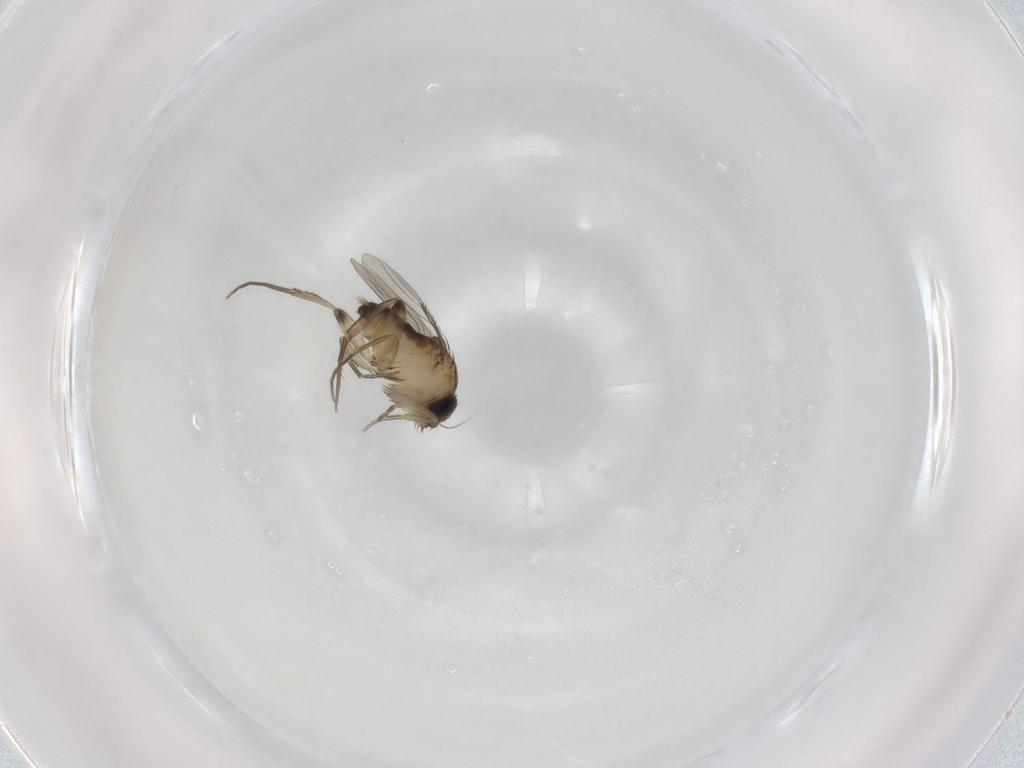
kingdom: Animalia
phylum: Arthropoda
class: Insecta
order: Diptera
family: Phoridae
